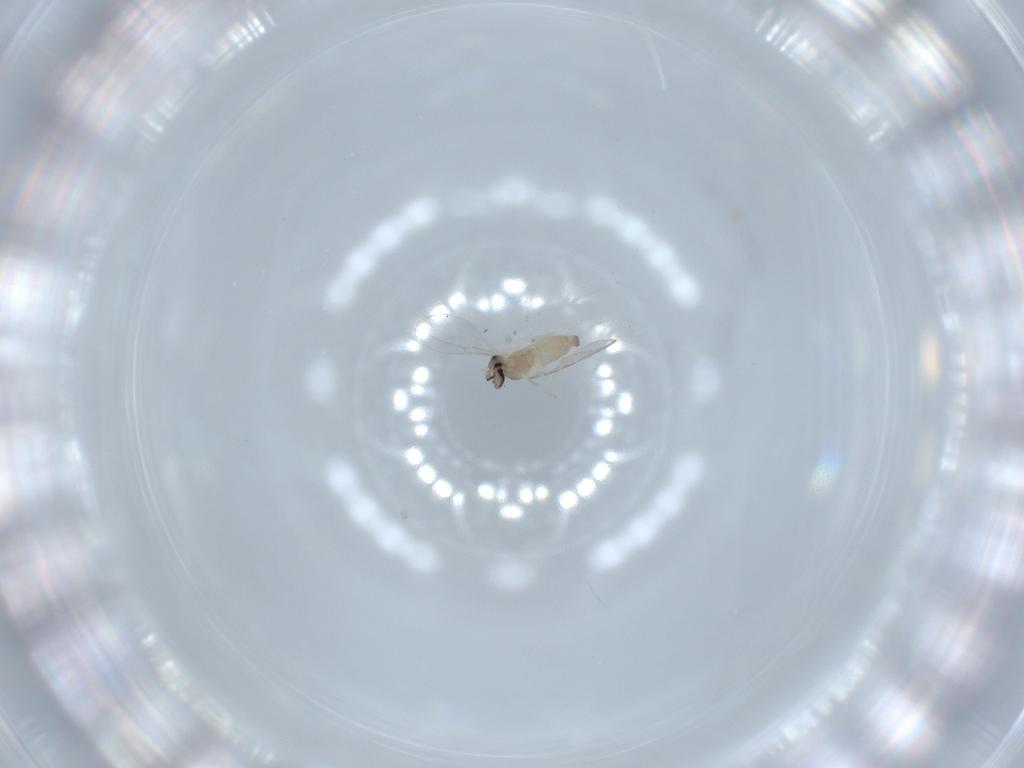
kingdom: Animalia
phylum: Arthropoda
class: Insecta
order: Diptera
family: Cecidomyiidae
